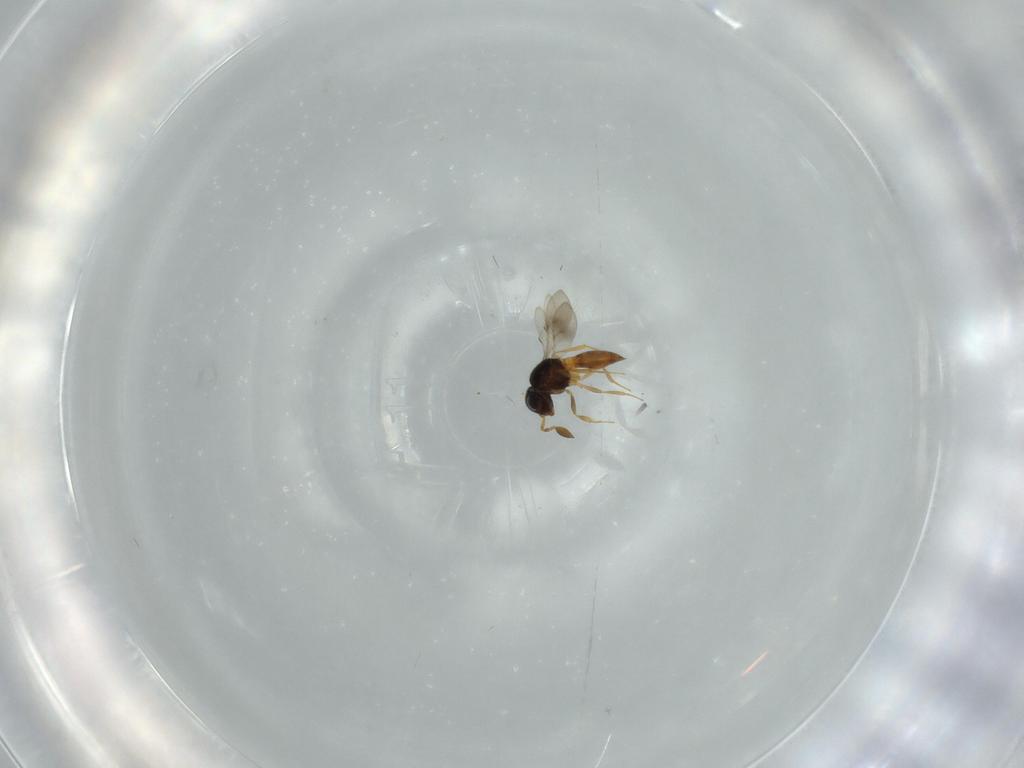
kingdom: Animalia
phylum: Arthropoda
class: Insecta
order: Hymenoptera
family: Scelionidae
